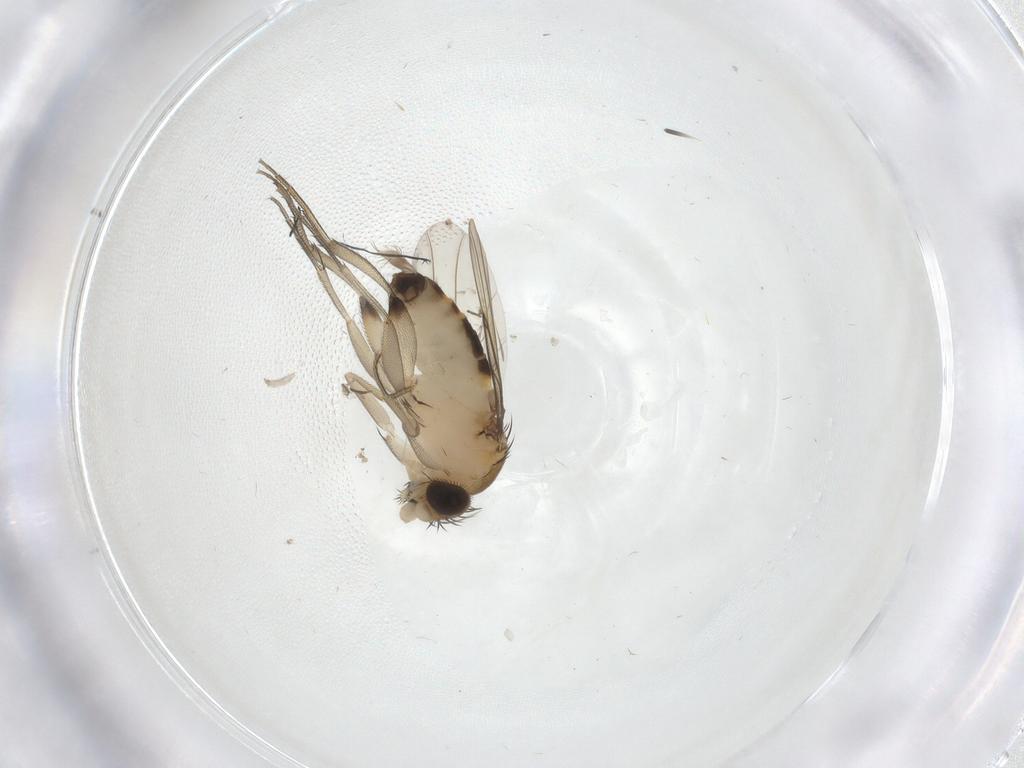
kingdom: Animalia
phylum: Arthropoda
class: Insecta
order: Diptera
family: Phoridae
